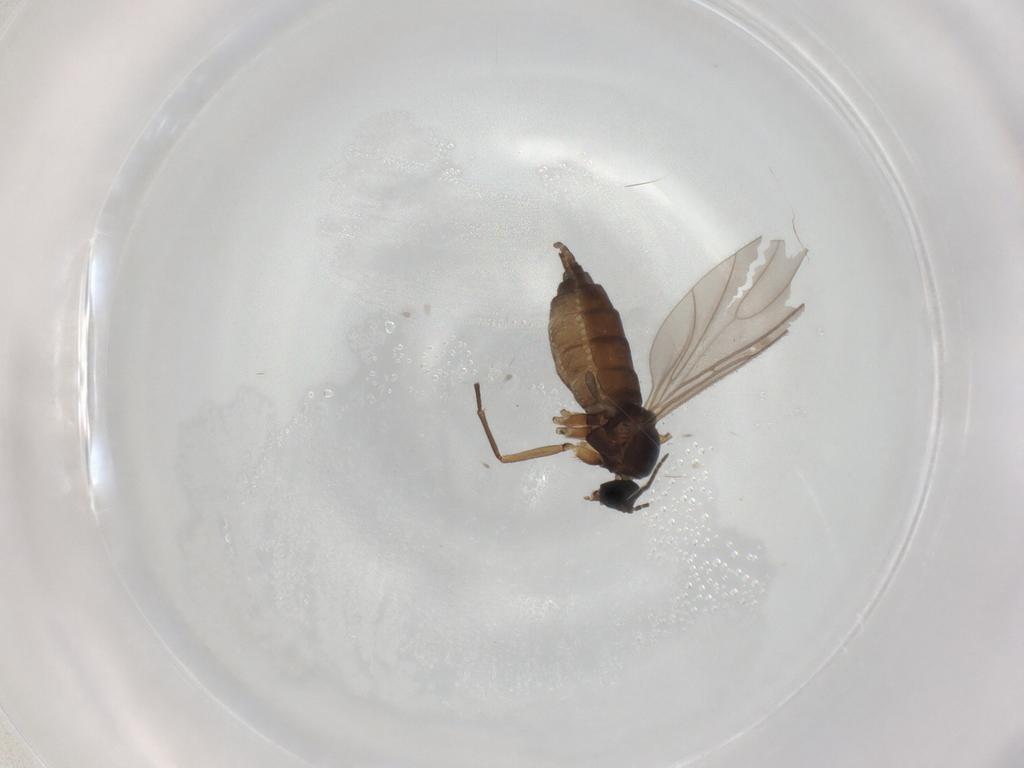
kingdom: Animalia
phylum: Arthropoda
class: Insecta
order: Diptera
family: Sciaridae
